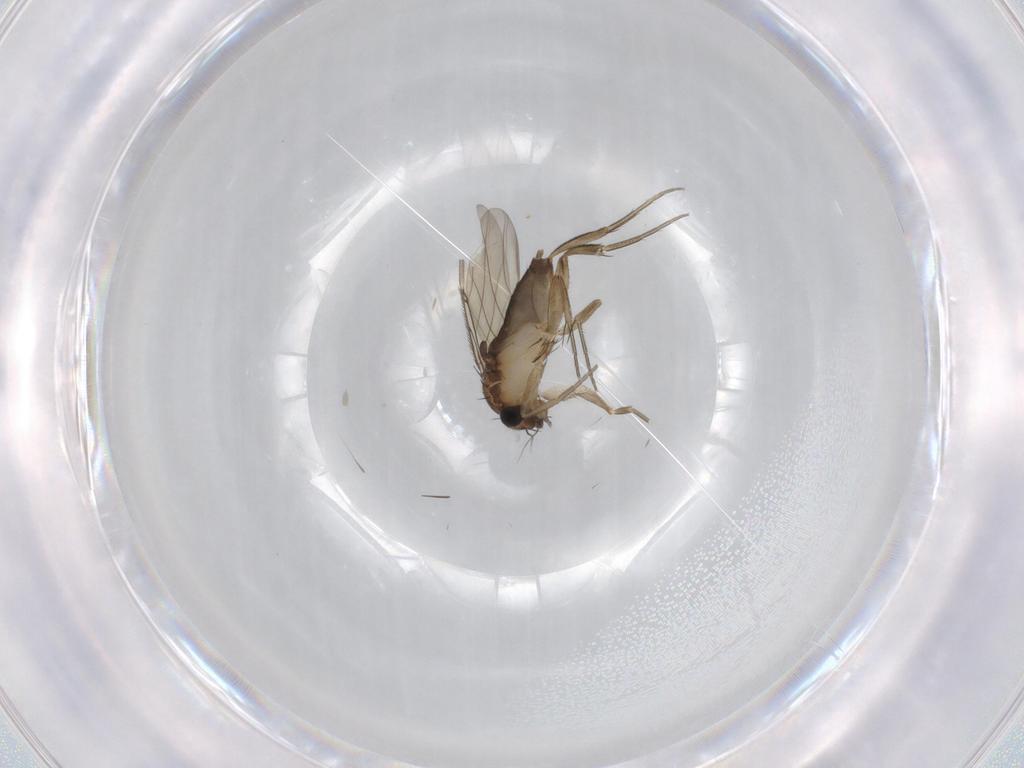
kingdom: Animalia
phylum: Arthropoda
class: Insecta
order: Diptera
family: Phoridae
